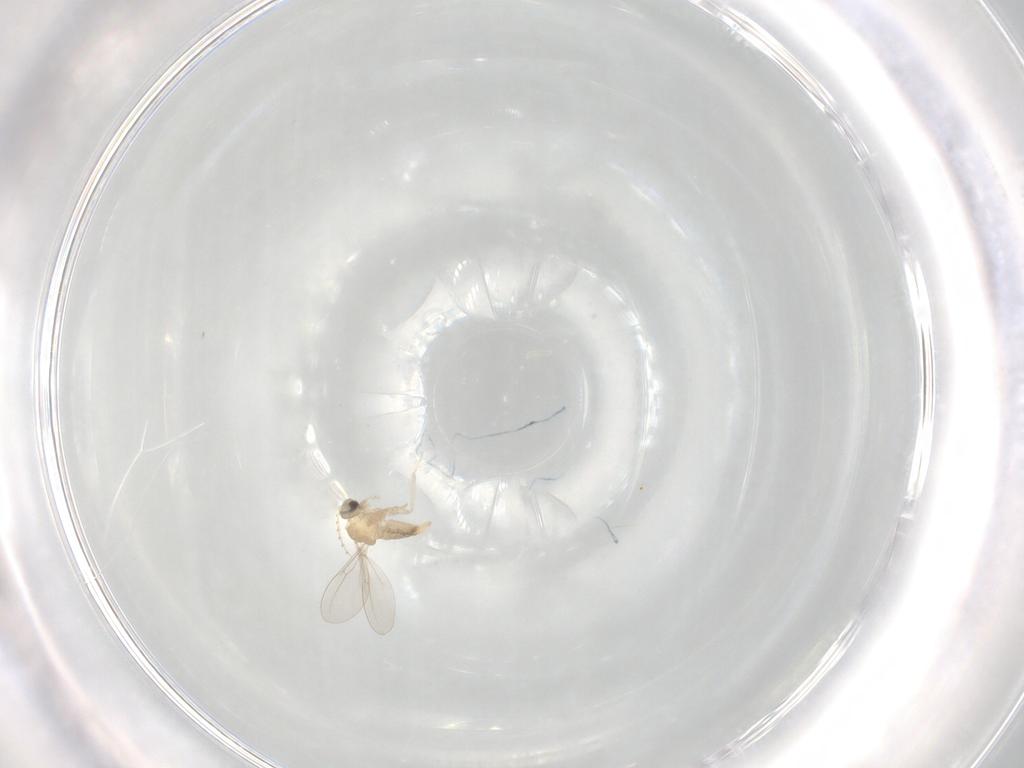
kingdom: Animalia
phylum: Arthropoda
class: Insecta
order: Diptera
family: Cecidomyiidae
